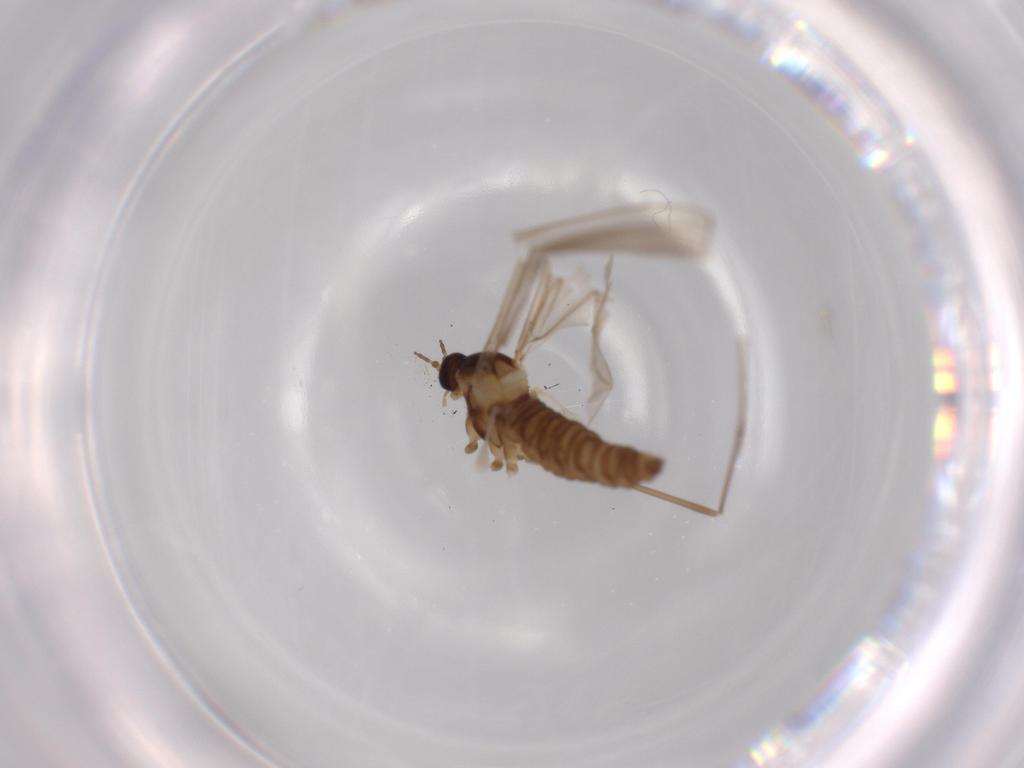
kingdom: Animalia
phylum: Arthropoda
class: Insecta
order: Diptera
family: Cecidomyiidae
